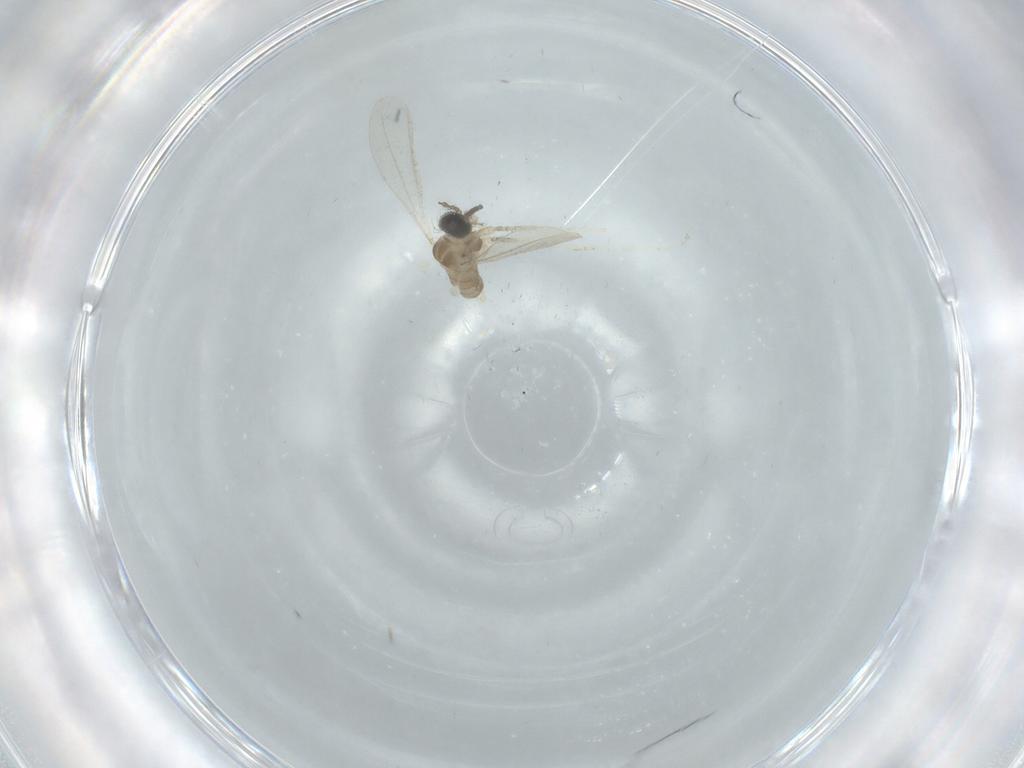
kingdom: Animalia
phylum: Arthropoda
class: Insecta
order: Diptera
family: Cecidomyiidae
